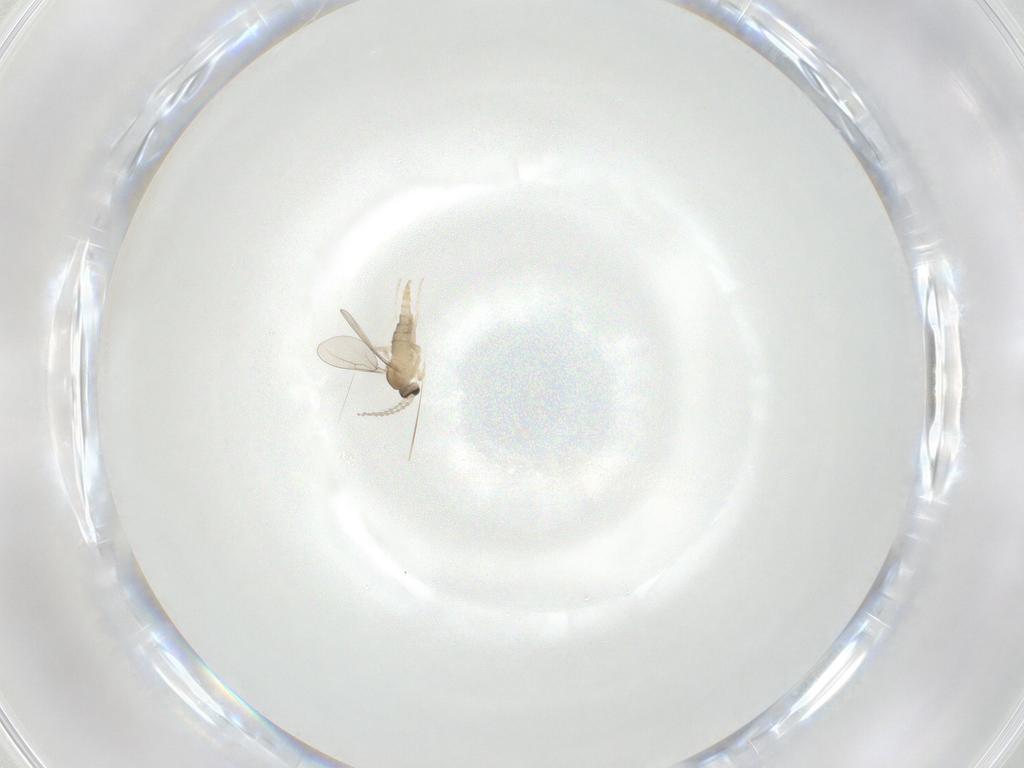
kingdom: Animalia
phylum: Arthropoda
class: Insecta
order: Diptera
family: Cecidomyiidae
